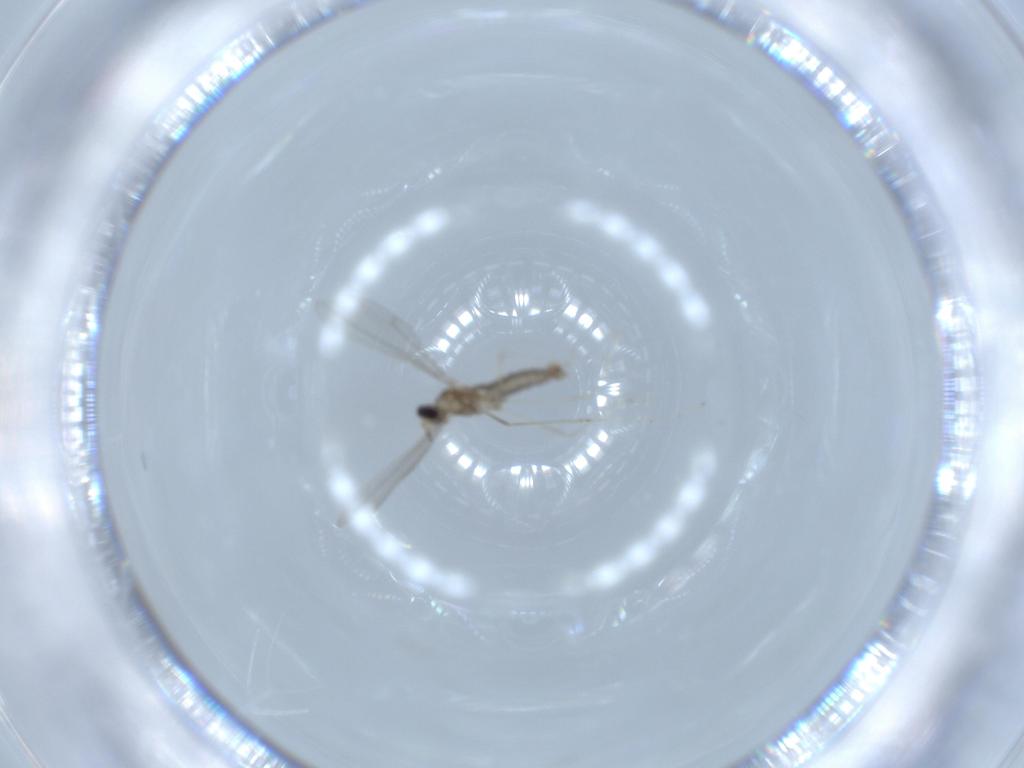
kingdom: Animalia
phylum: Arthropoda
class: Insecta
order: Diptera
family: Cecidomyiidae
